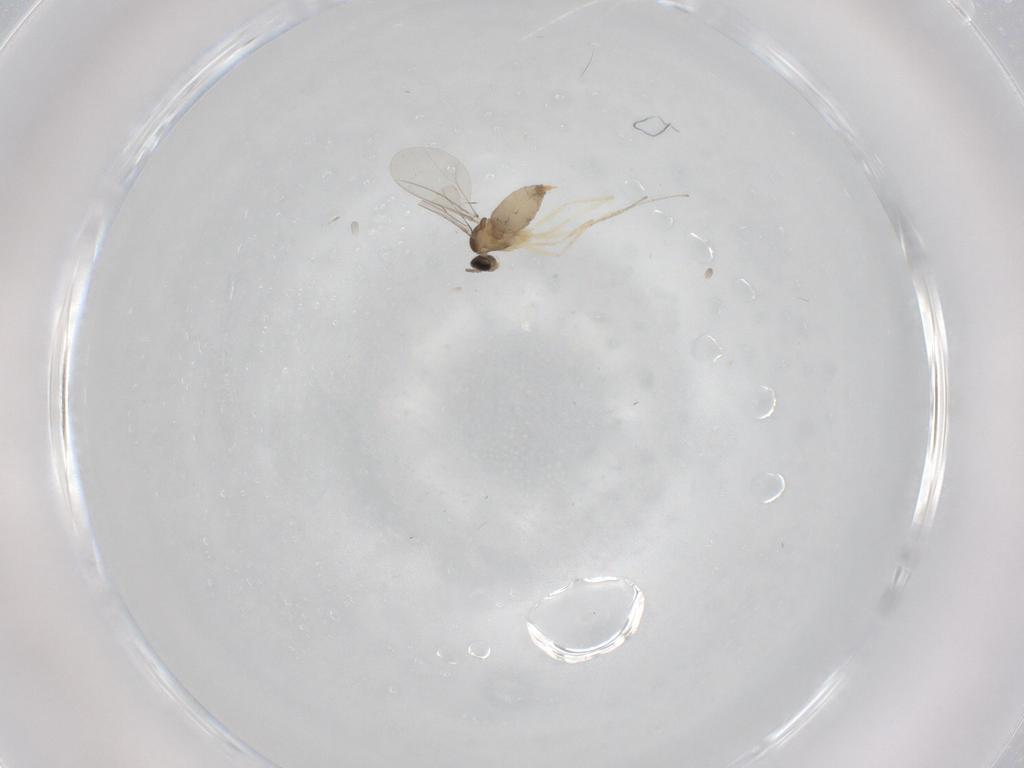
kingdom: Animalia
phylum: Arthropoda
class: Insecta
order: Diptera
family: Cecidomyiidae
